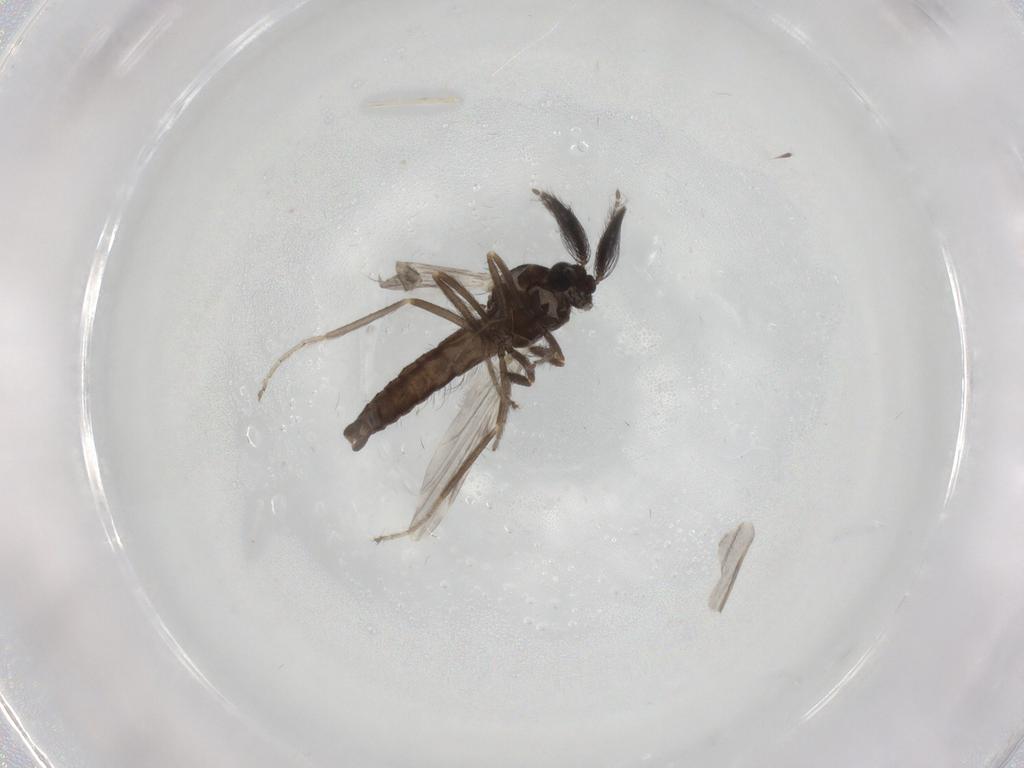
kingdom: Animalia
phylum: Arthropoda
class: Insecta
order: Diptera
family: Ceratopogonidae
